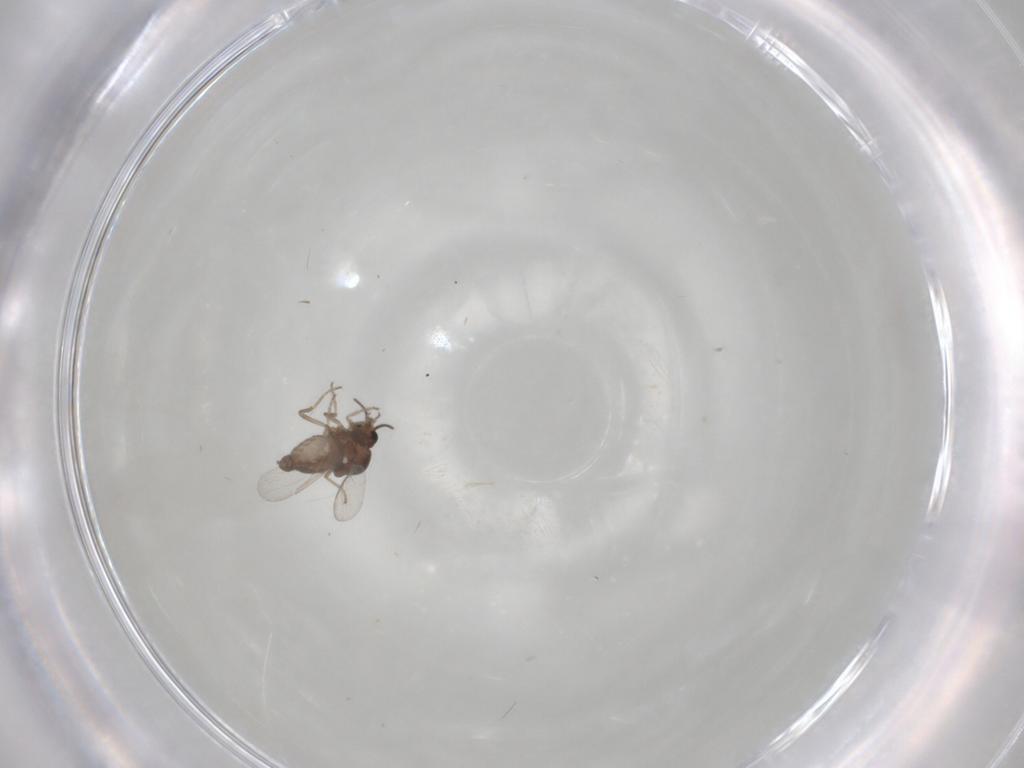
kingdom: Animalia
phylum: Arthropoda
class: Insecta
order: Diptera
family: Ceratopogonidae
